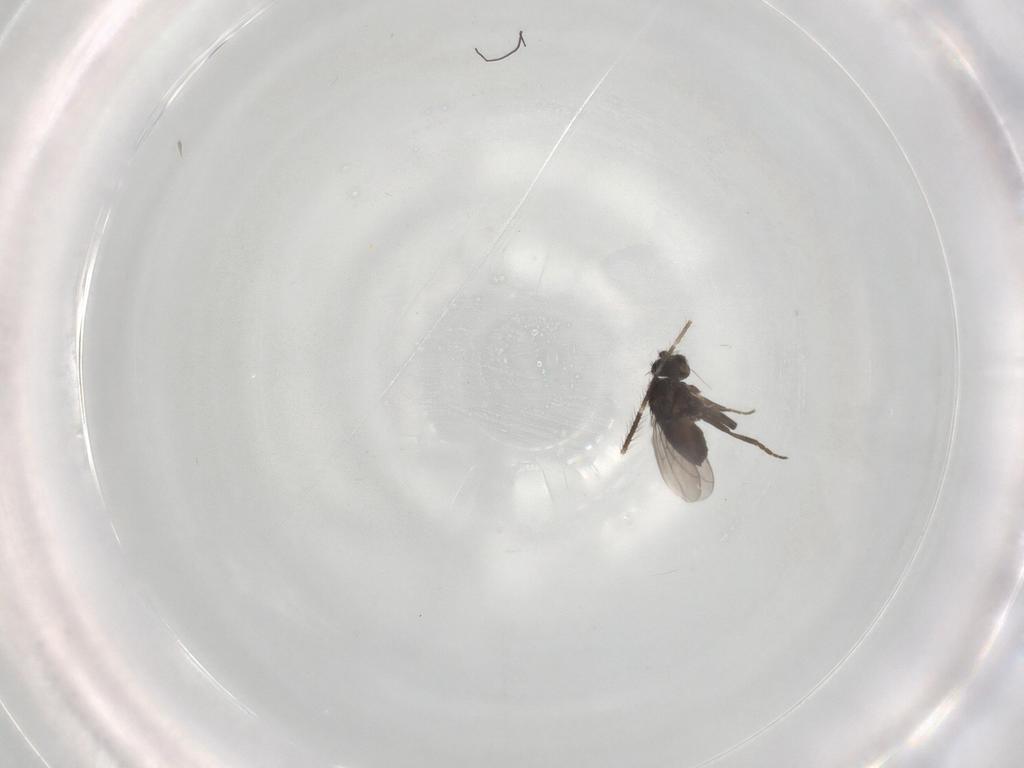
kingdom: Animalia
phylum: Arthropoda
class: Insecta
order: Diptera
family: Sphaeroceridae
